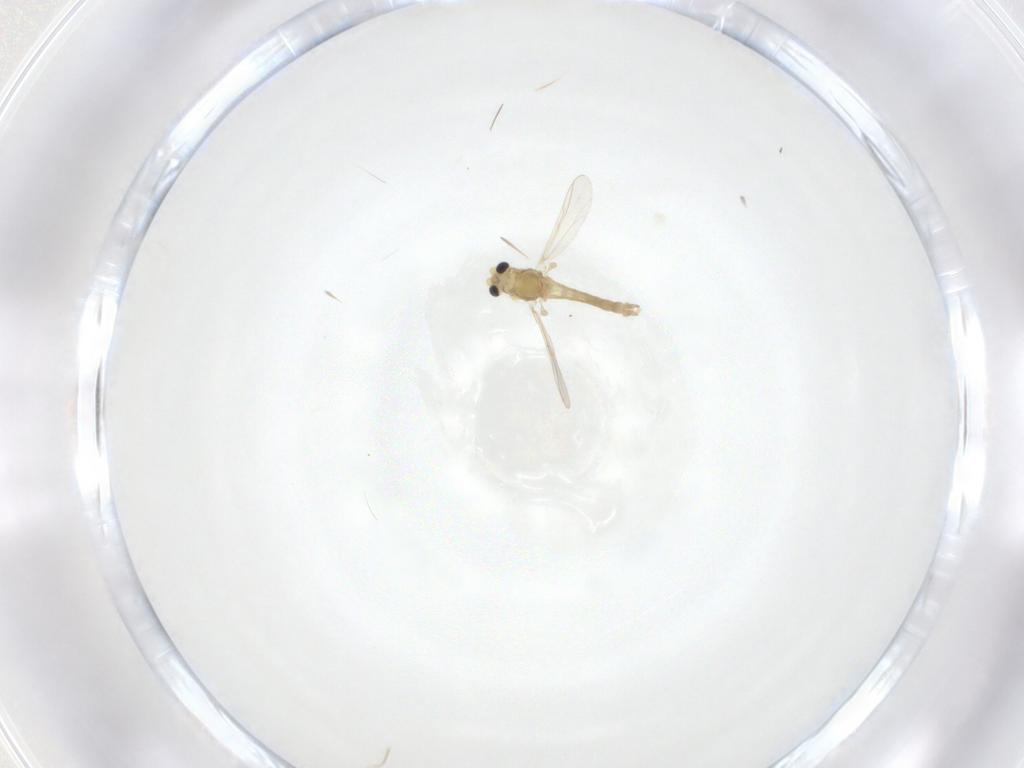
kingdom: Animalia
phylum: Arthropoda
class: Insecta
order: Diptera
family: Chironomidae
